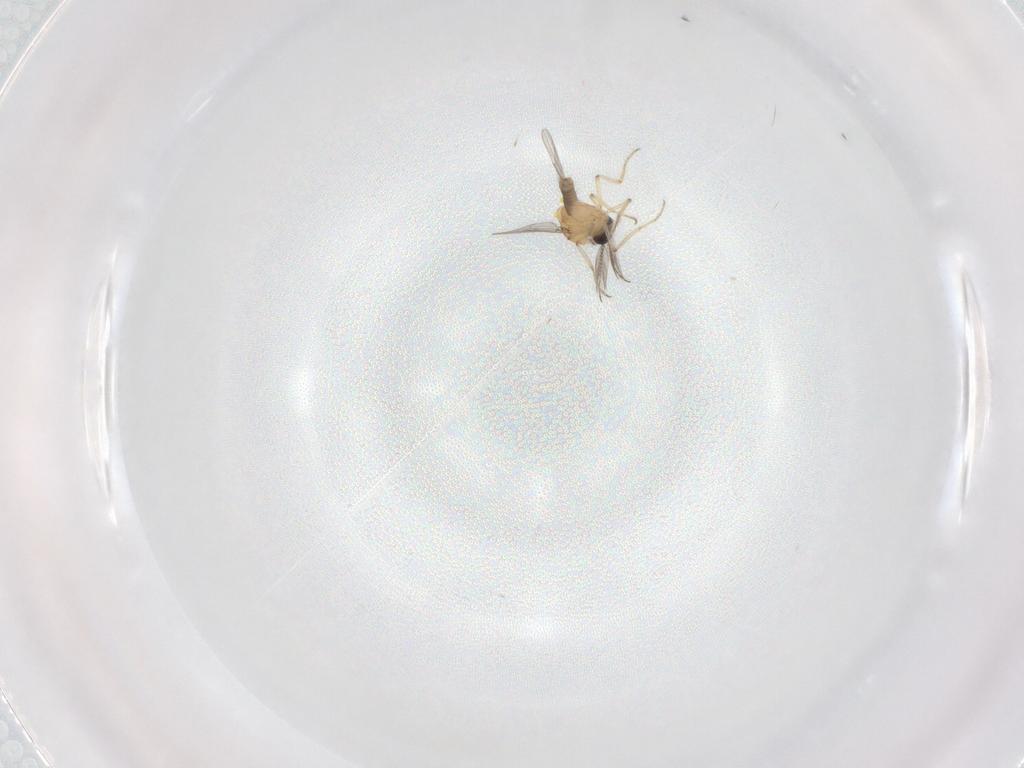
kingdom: Animalia
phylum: Arthropoda
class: Insecta
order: Diptera
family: Ceratopogonidae
